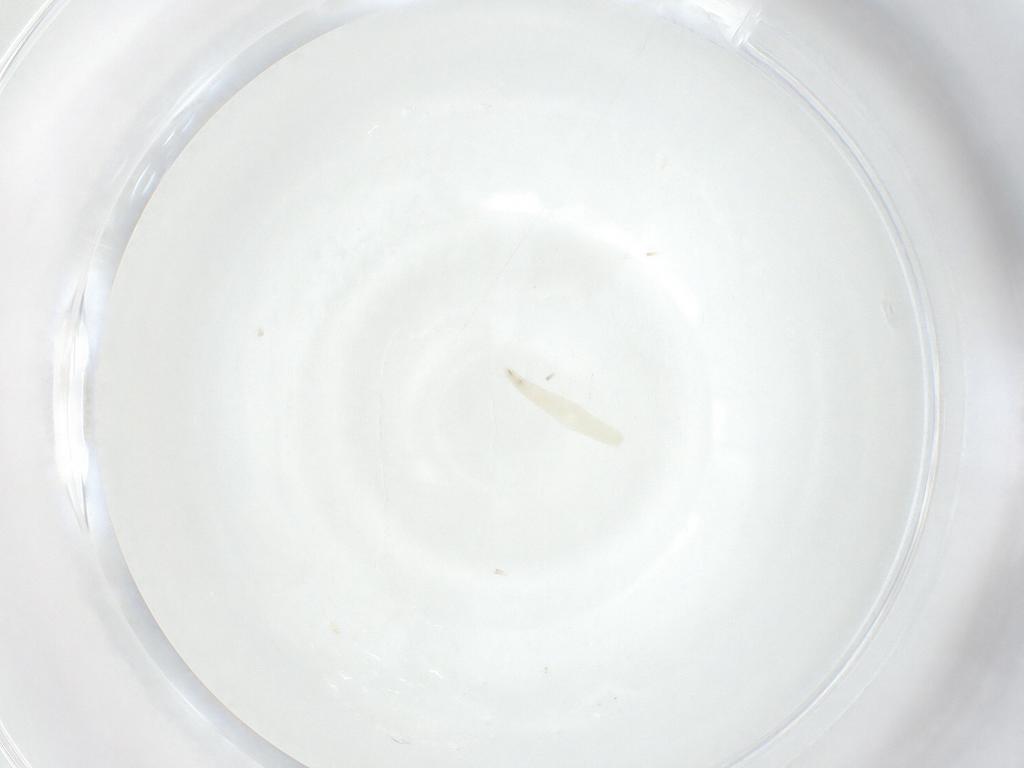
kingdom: Animalia
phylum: Arthropoda
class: Insecta
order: Diptera
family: Sarcophagidae
